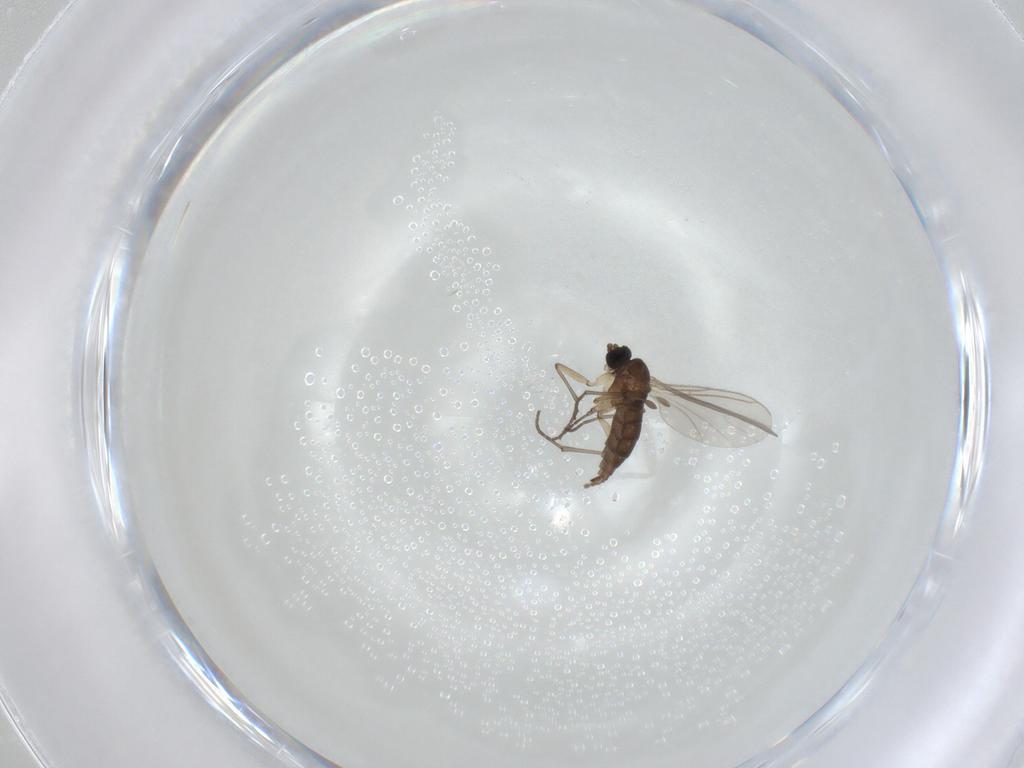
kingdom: Animalia
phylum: Arthropoda
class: Insecta
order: Diptera
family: Sciaridae
